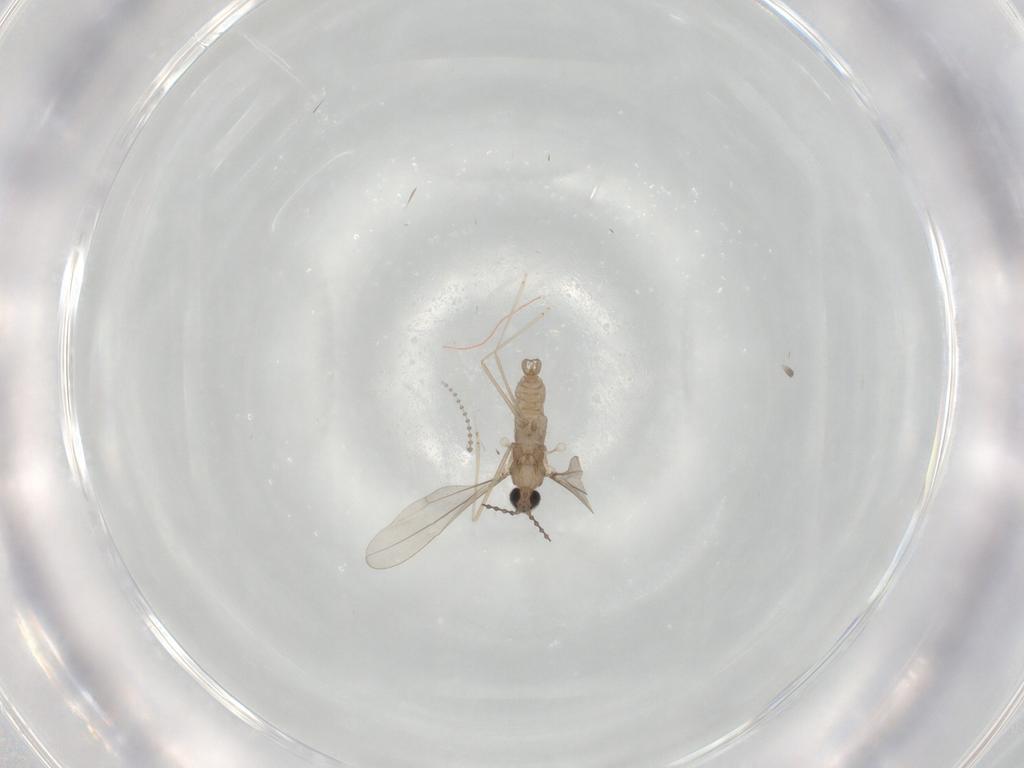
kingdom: Animalia
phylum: Arthropoda
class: Insecta
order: Diptera
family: Cecidomyiidae
